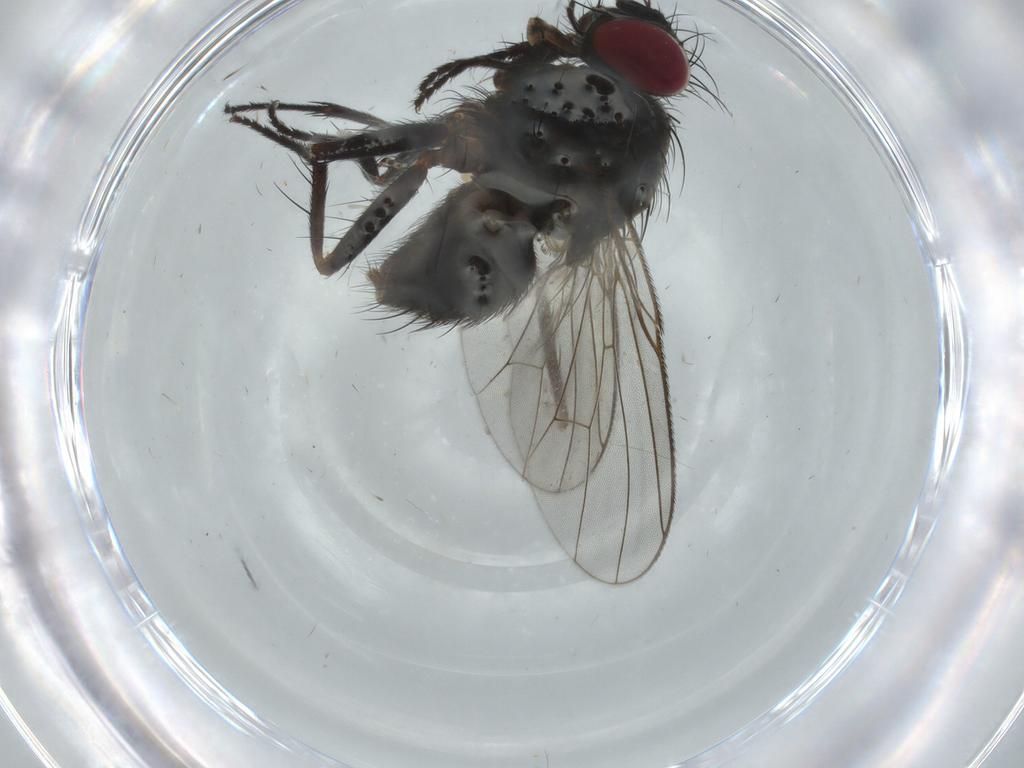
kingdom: Animalia
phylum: Arthropoda
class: Insecta
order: Diptera
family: Muscidae
